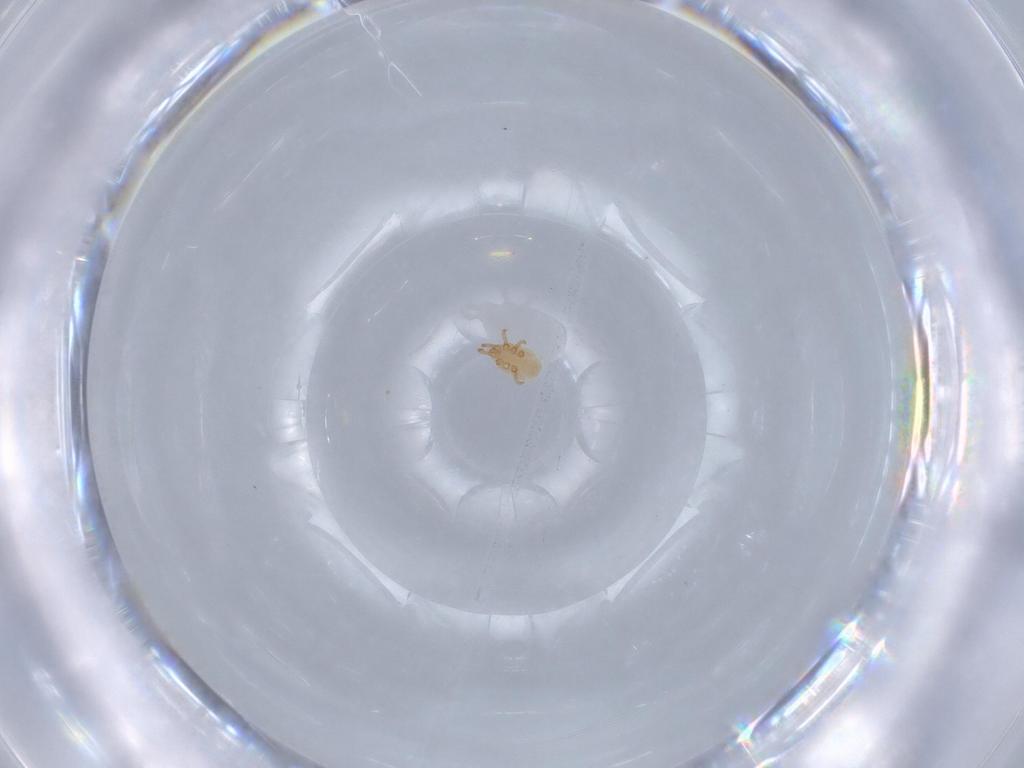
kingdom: Animalia
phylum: Arthropoda
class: Arachnida
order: Mesostigmata
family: Dinychidae
